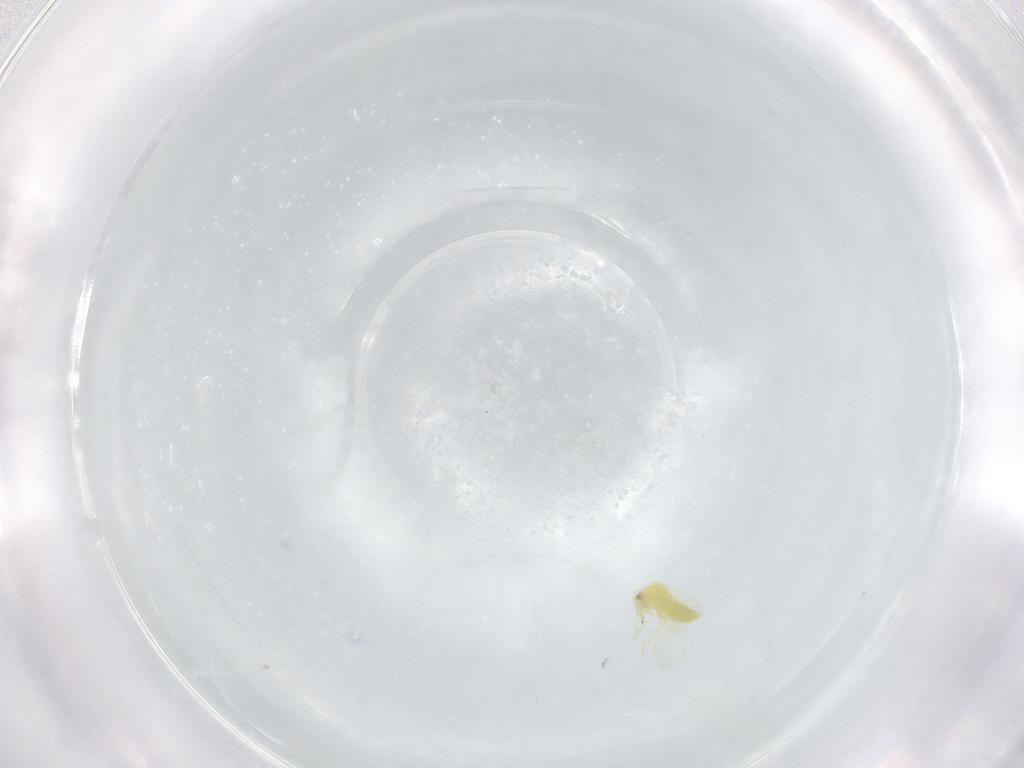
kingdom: Animalia
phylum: Arthropoda
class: Insecta
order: Hemiptera
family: Aleyrodidae
